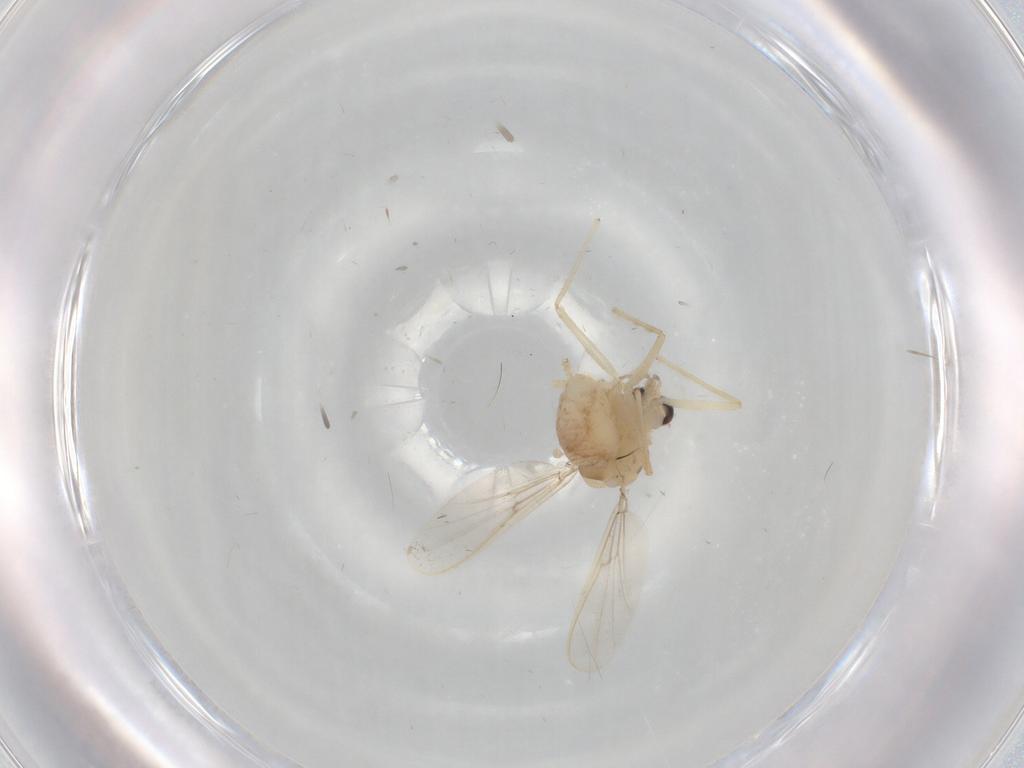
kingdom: Animalia
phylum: Arthropoda
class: Insecta
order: Diptera
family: Chironomidae
